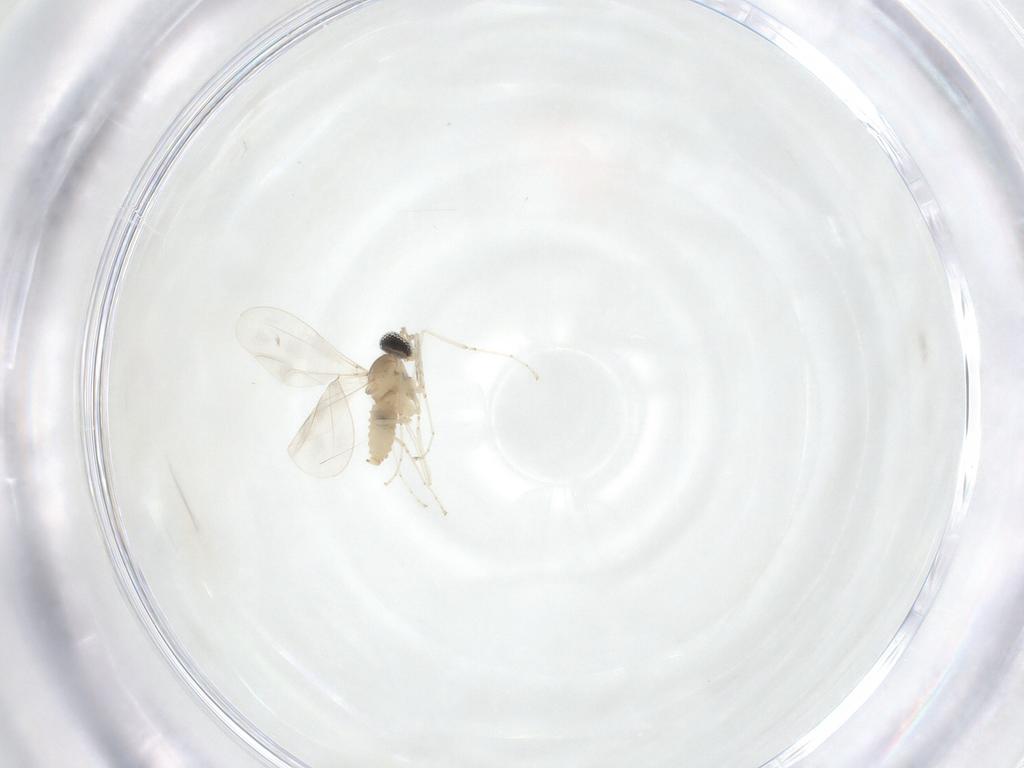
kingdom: Animalia
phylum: Arthropoda
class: Insecta
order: Diptera
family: Cecidomyiidae
